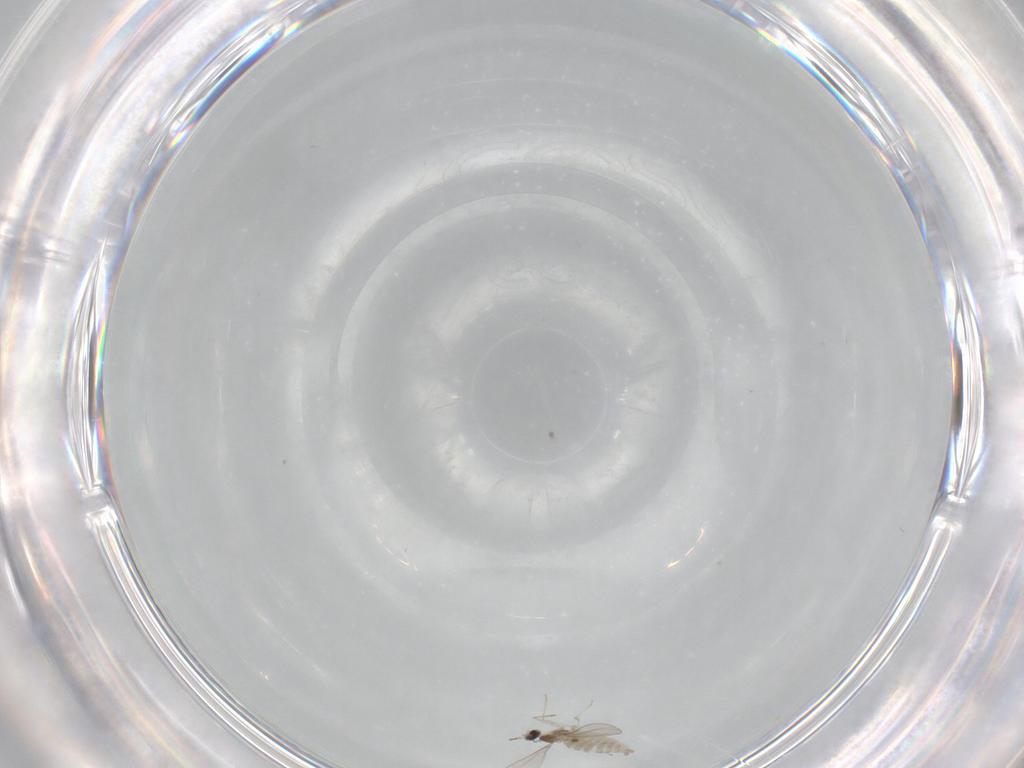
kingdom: Animalia
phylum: Arthropoda
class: Insecta
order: Diptera
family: Cecidomyiidae
